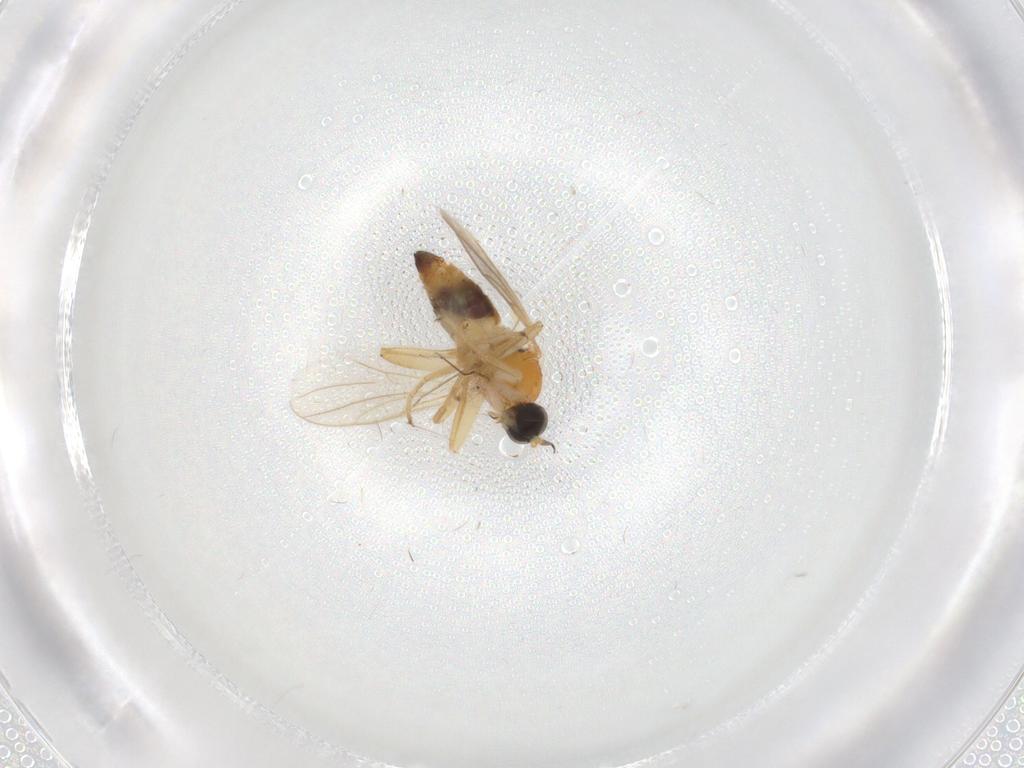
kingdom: Animalia
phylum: Arthropoda
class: Insecta
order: Diptera
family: Hybotidae
